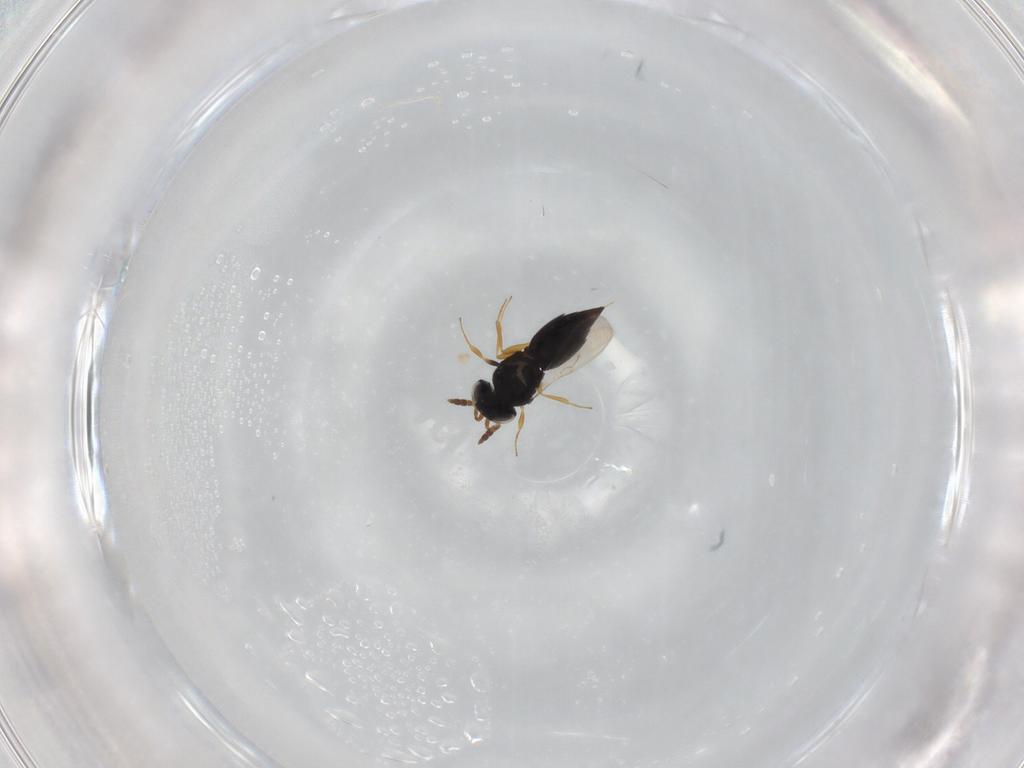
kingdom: Animalia
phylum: Arthropoda
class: Insecta
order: Hymenoptera
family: Scelionidae
